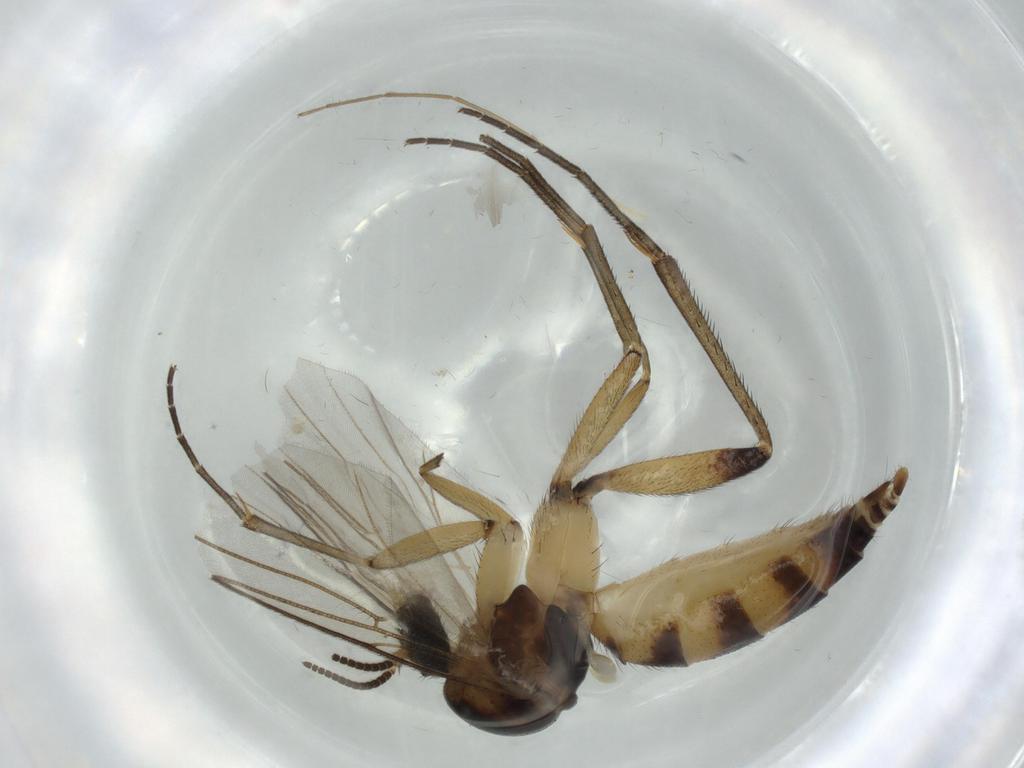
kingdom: Animalia
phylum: Arthropoda
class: Insecta
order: Diptera
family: Chironomidae
